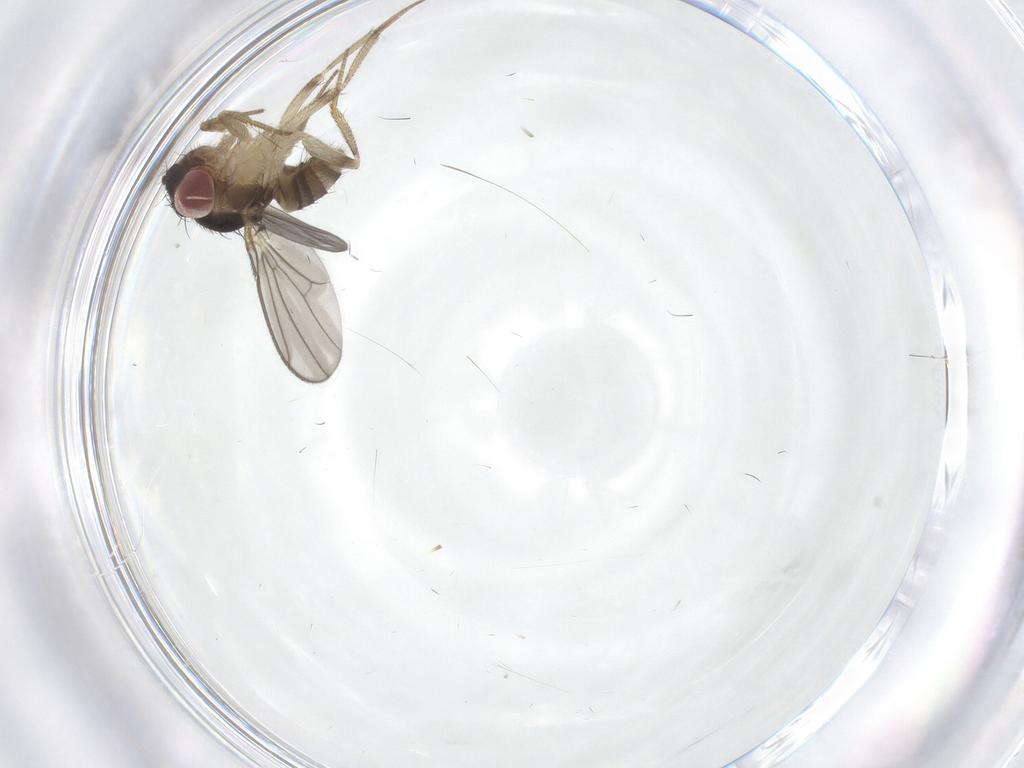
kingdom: Animalia
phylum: Arthropoda
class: Insecta
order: Diptera
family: Drosophilidae
